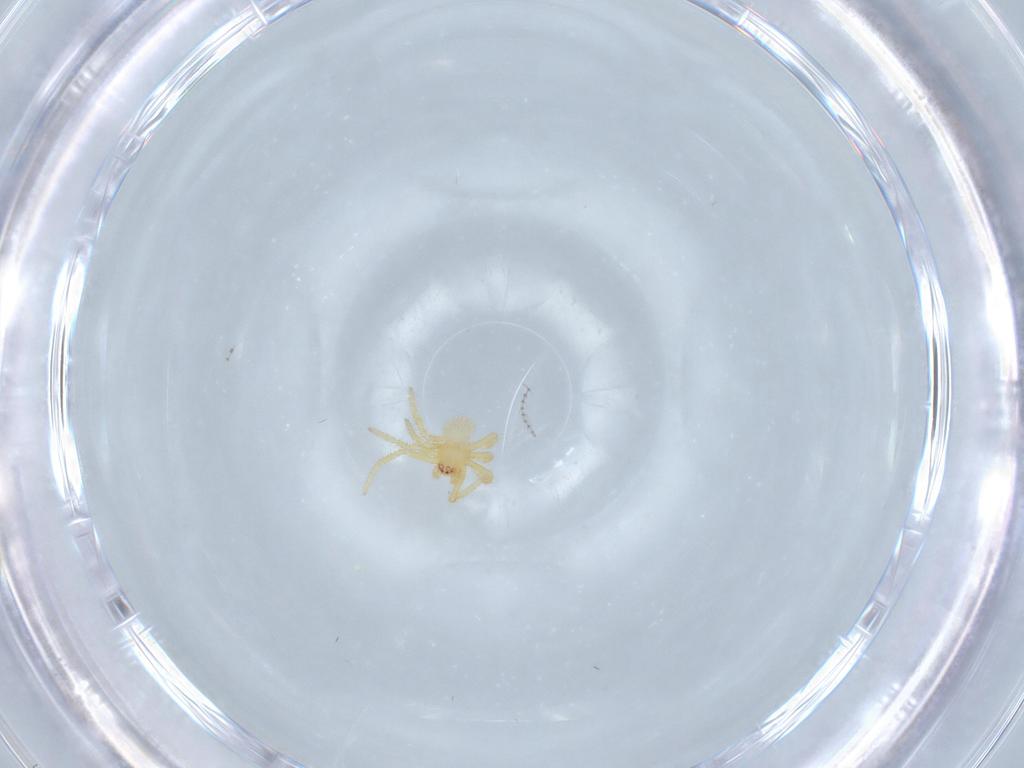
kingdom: Animalia
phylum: Arthropoda
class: Arachnida
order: Araneae
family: Theridiidae
